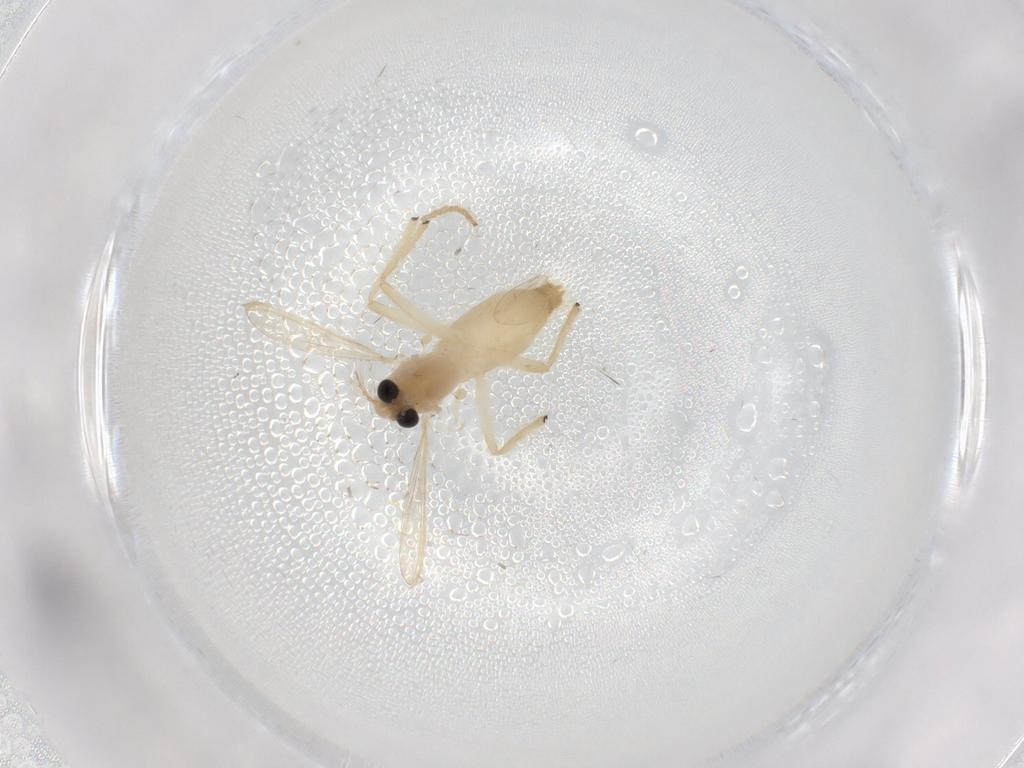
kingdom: Animalia
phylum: Arthropoda
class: Insecta
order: Diptera
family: Chironomidae
